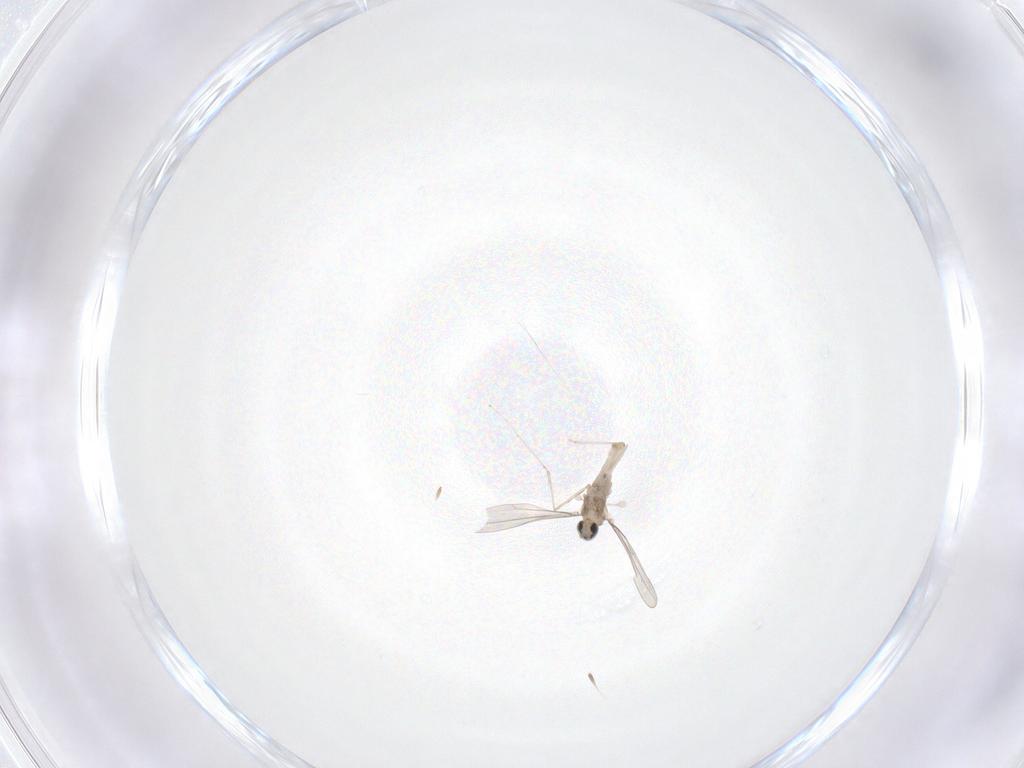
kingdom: Animalia
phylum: Arthropoda
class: Insecta
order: Diptera
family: Cecidomyiidae
